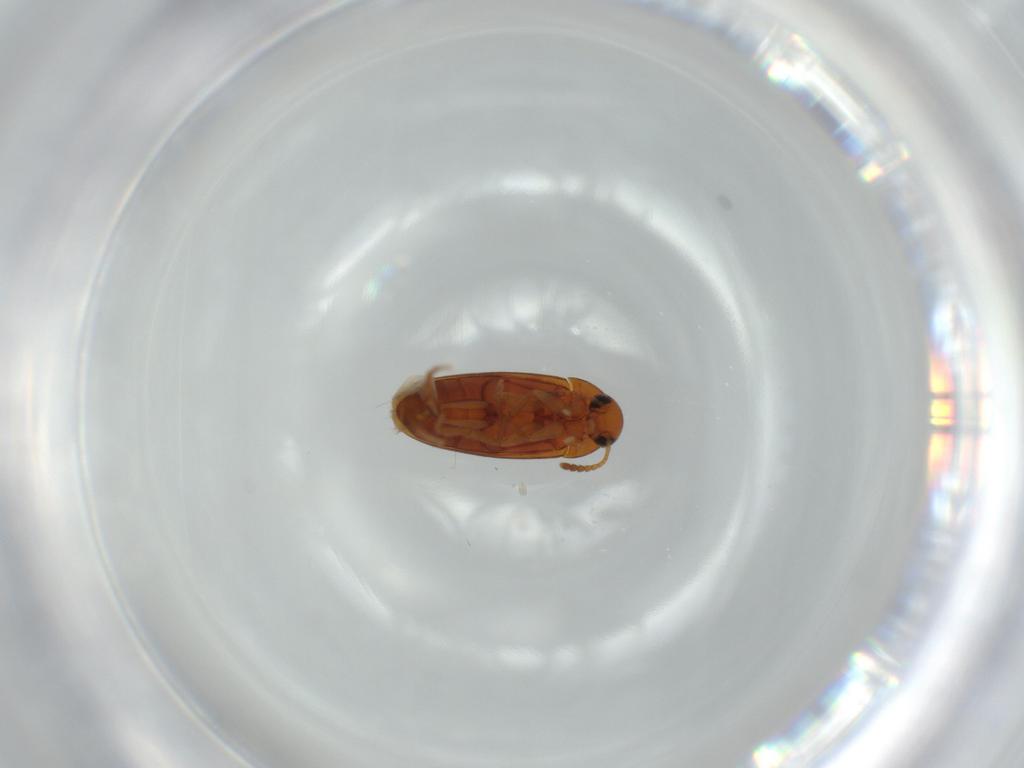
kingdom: Animalia
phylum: Arthropoda
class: Insecta
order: Coleoptera
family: Scraptiidae
